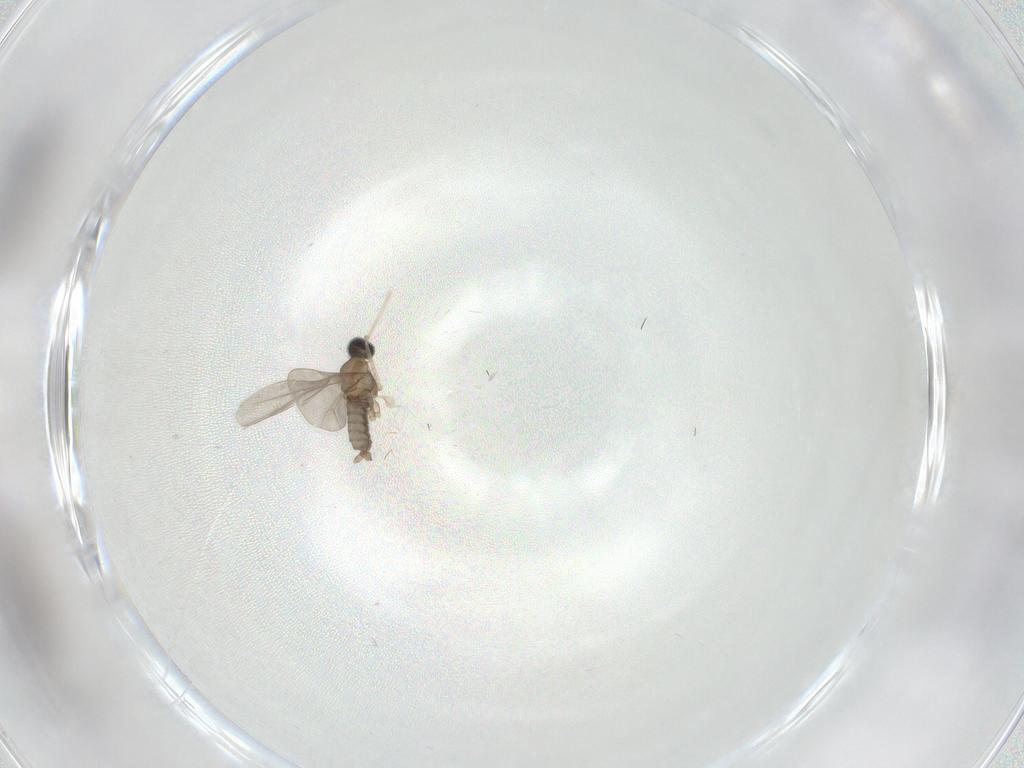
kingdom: Animalia
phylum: Arthropoda
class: Insecta
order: Diptera
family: Cecidomyiidae
